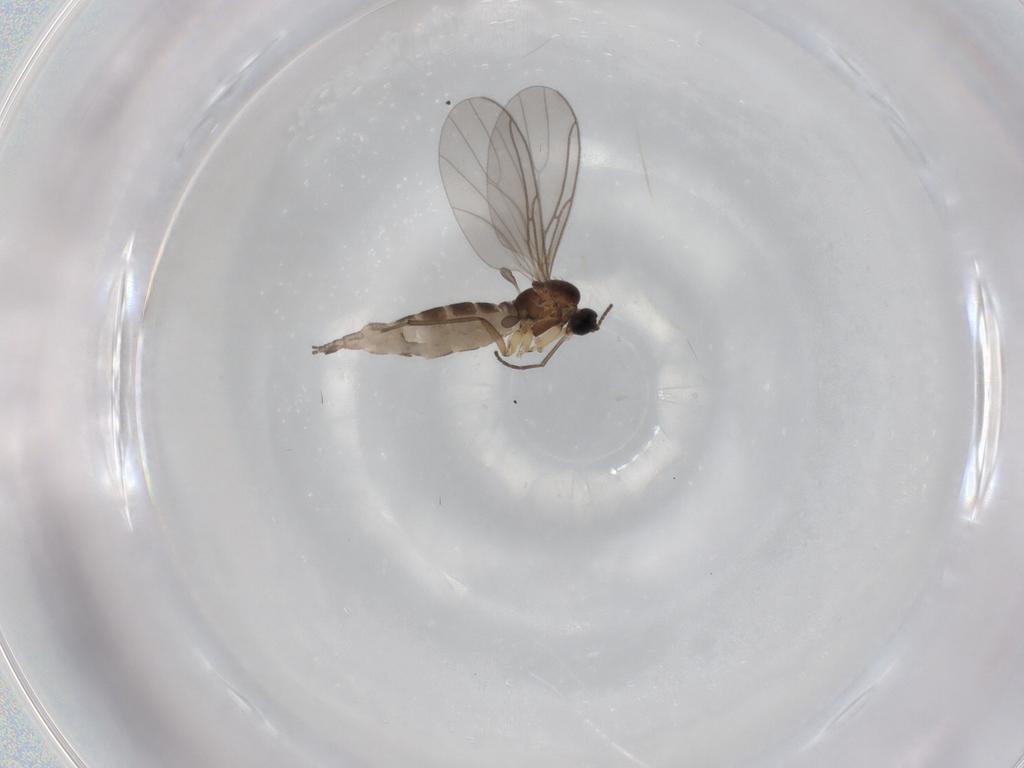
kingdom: Animalia
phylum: Arthropoda
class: Insecta
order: Diptera
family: Sciaridae
